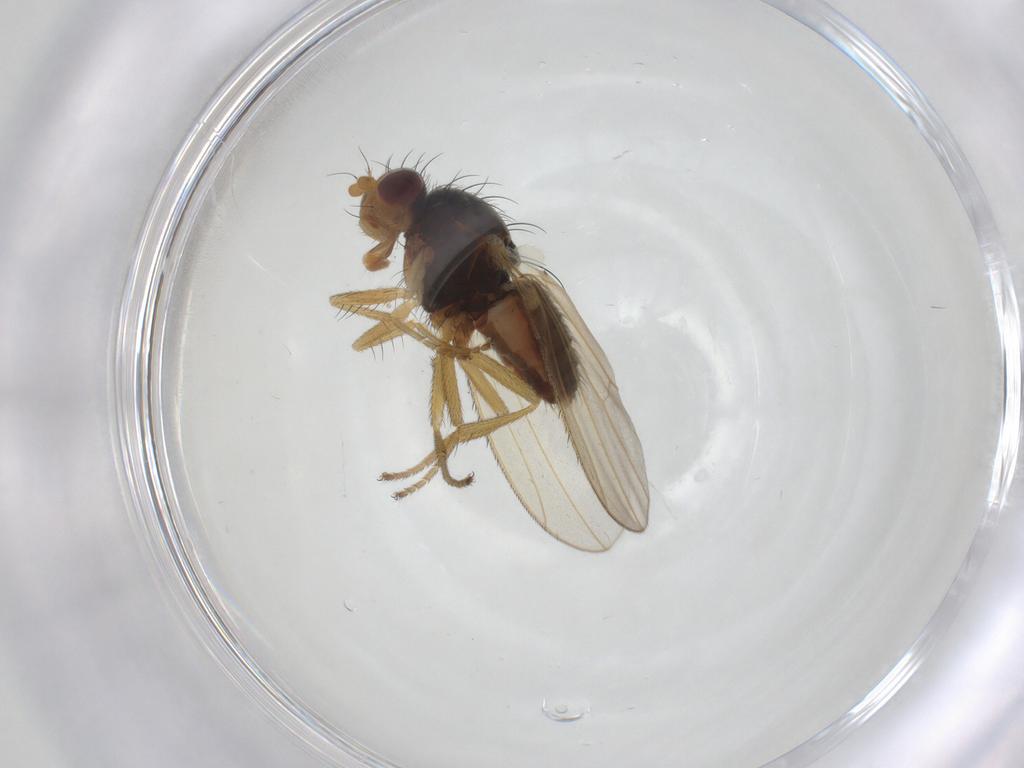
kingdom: Animalia
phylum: Arthropoda
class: Insecta
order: Diptera
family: Heleomyzidae
